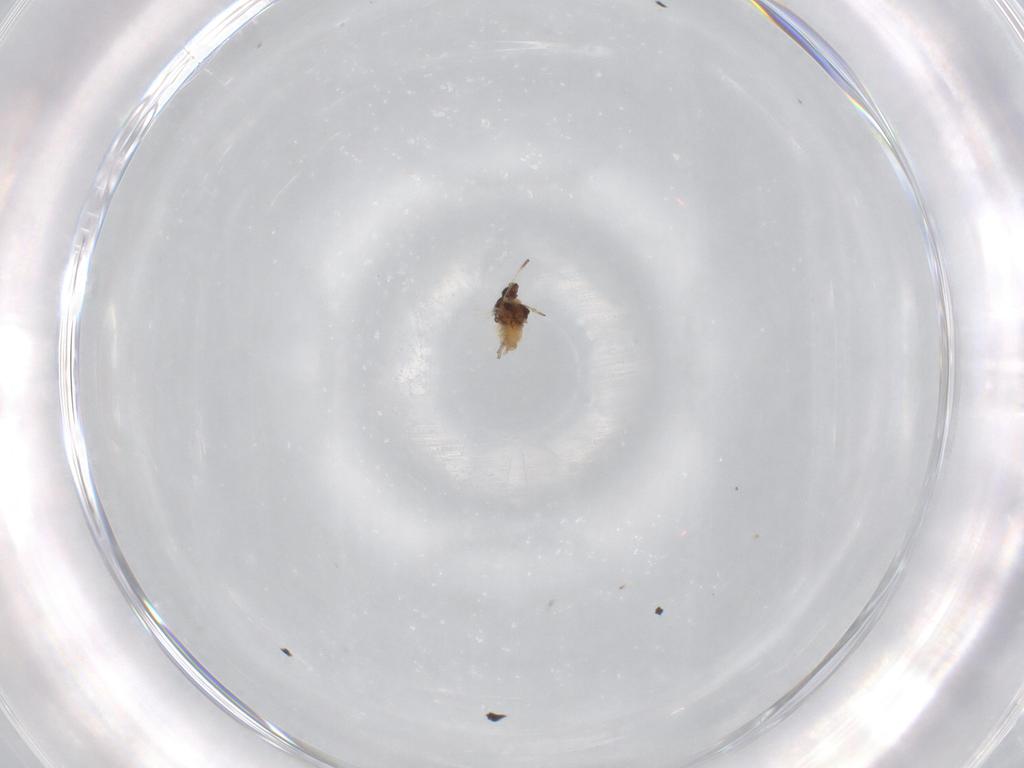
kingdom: Animalia
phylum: Arthropoda
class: Insecta
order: Hemiptera
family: Aphididae
